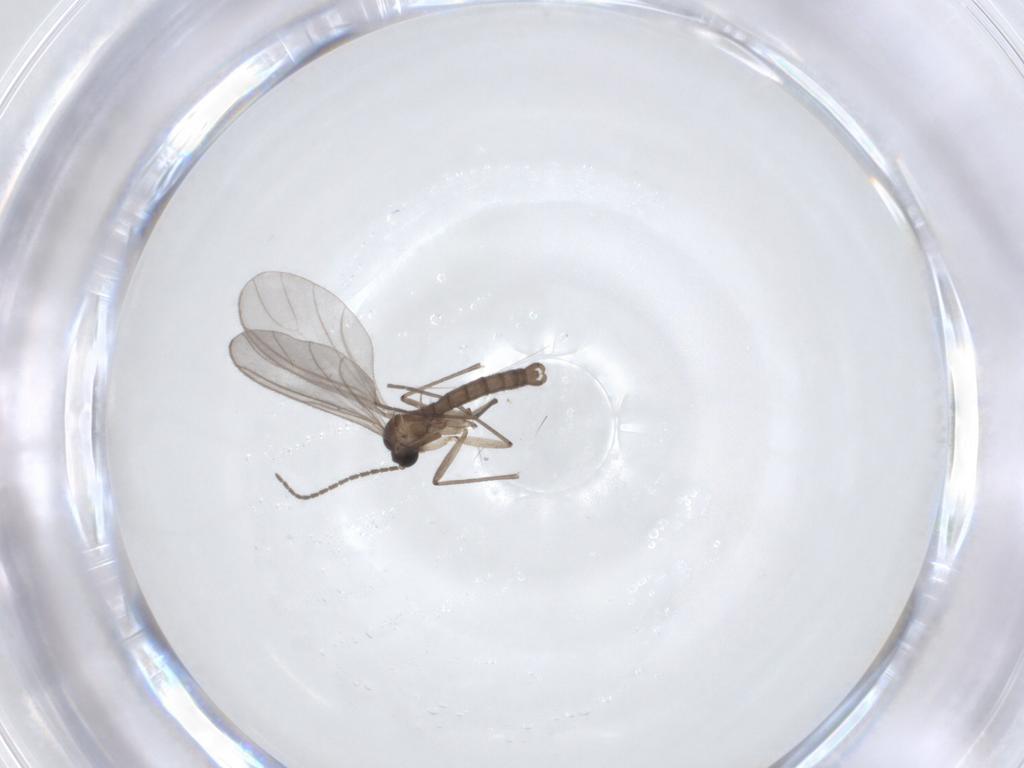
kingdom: Animalia
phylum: Arthropoda
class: Insecta
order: Diptera
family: Sciaridae
